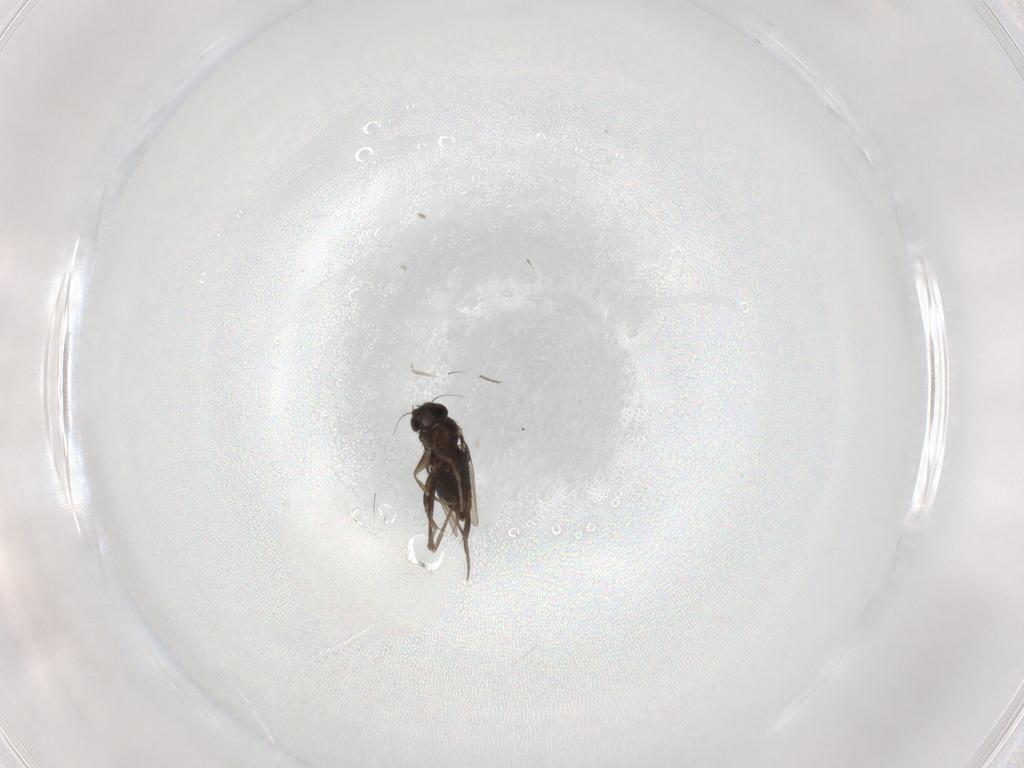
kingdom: Animalia
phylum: Arthropoda
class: Insecta
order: Diptera
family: Phoridae
